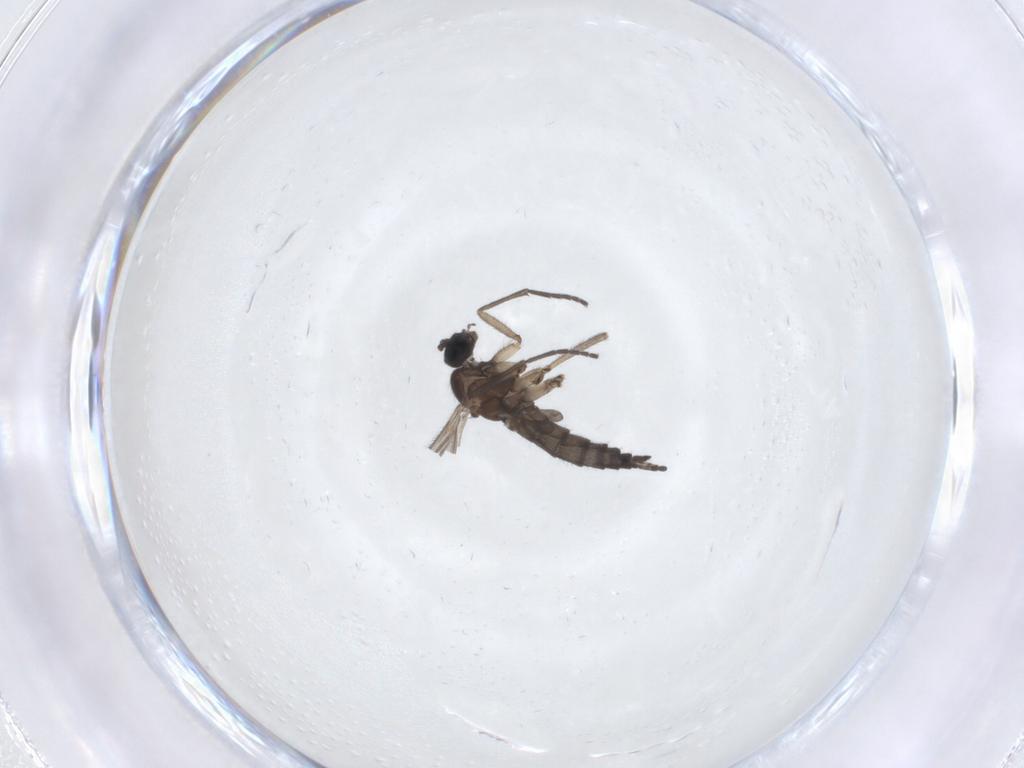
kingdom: Animalia
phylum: Arthropoda
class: Insecta
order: Diptera
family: Sciaridae
